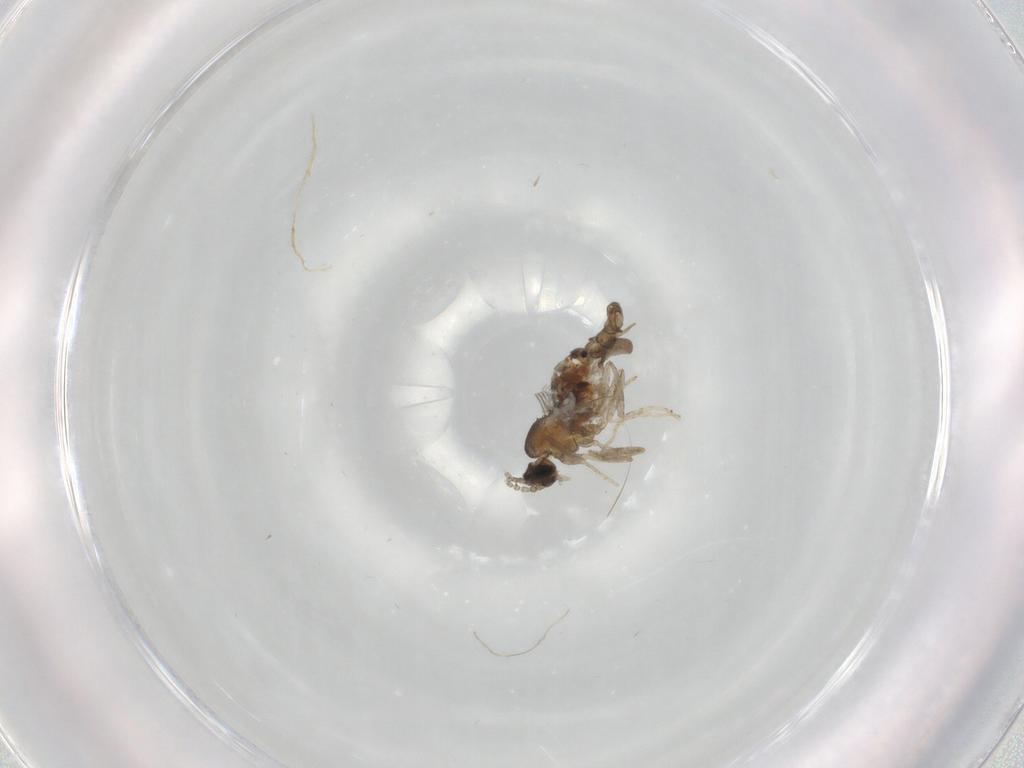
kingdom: Animalia
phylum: Arthropoda
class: Insecta
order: Diptera
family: Cecidomyiidae
